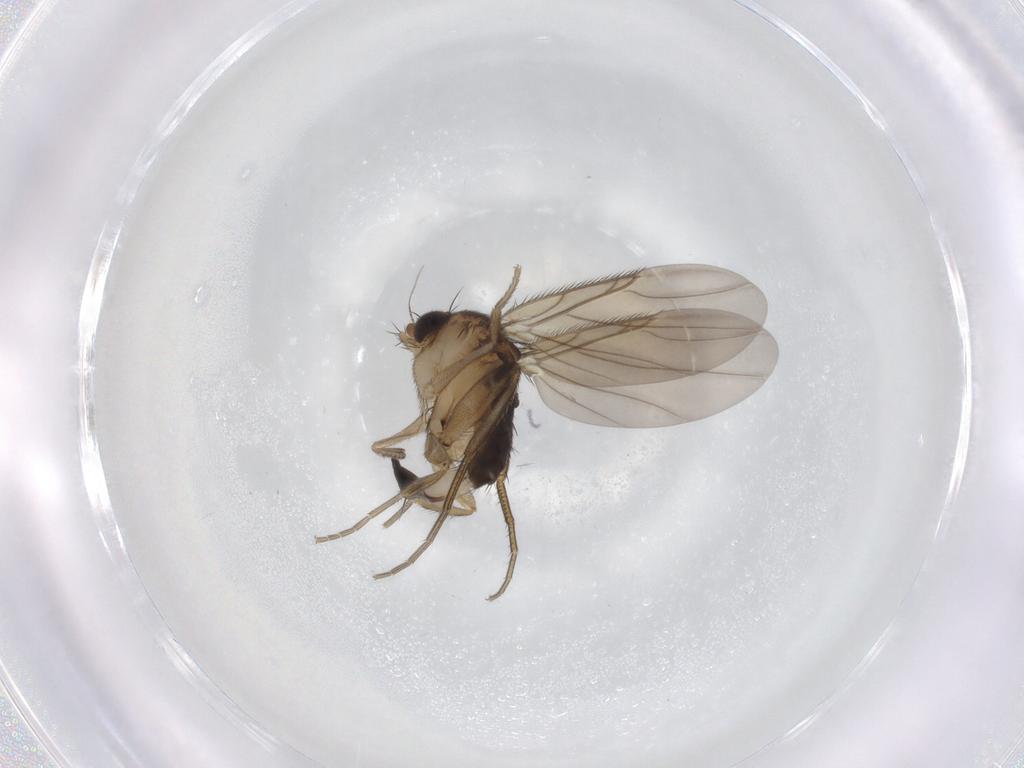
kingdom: Animalia
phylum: Arthropoda
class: Insecta
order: Diptera
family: Phoridae
